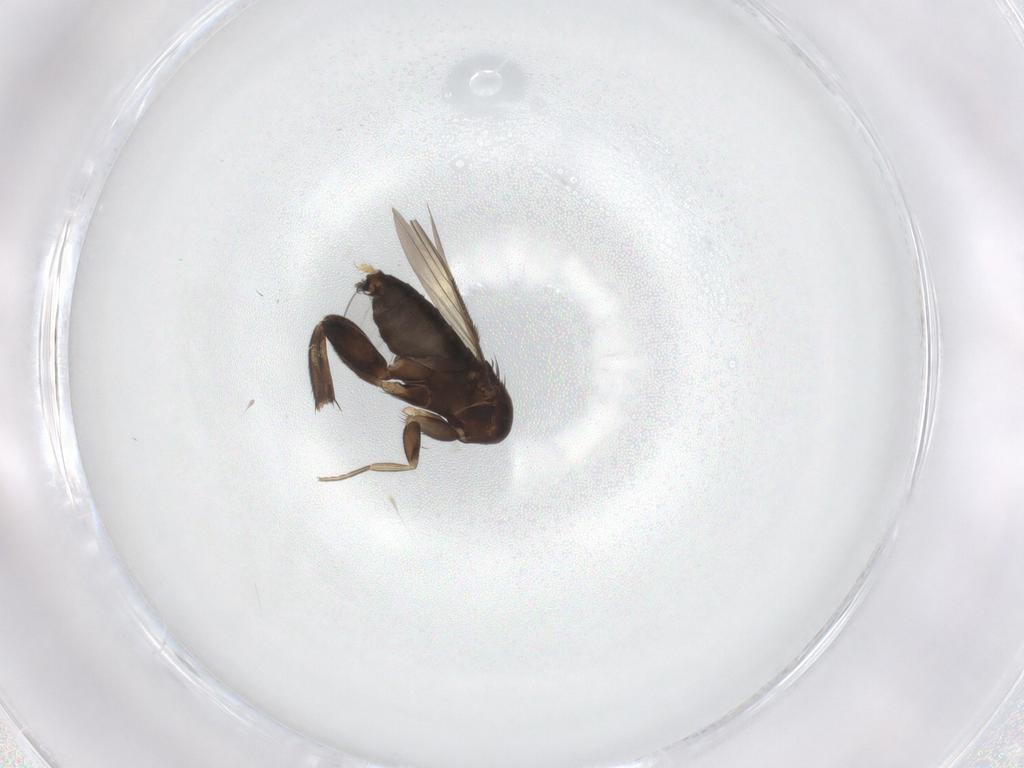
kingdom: Animalia
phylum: Arthropoda
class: Insecta
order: Diptera
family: Phoridae
